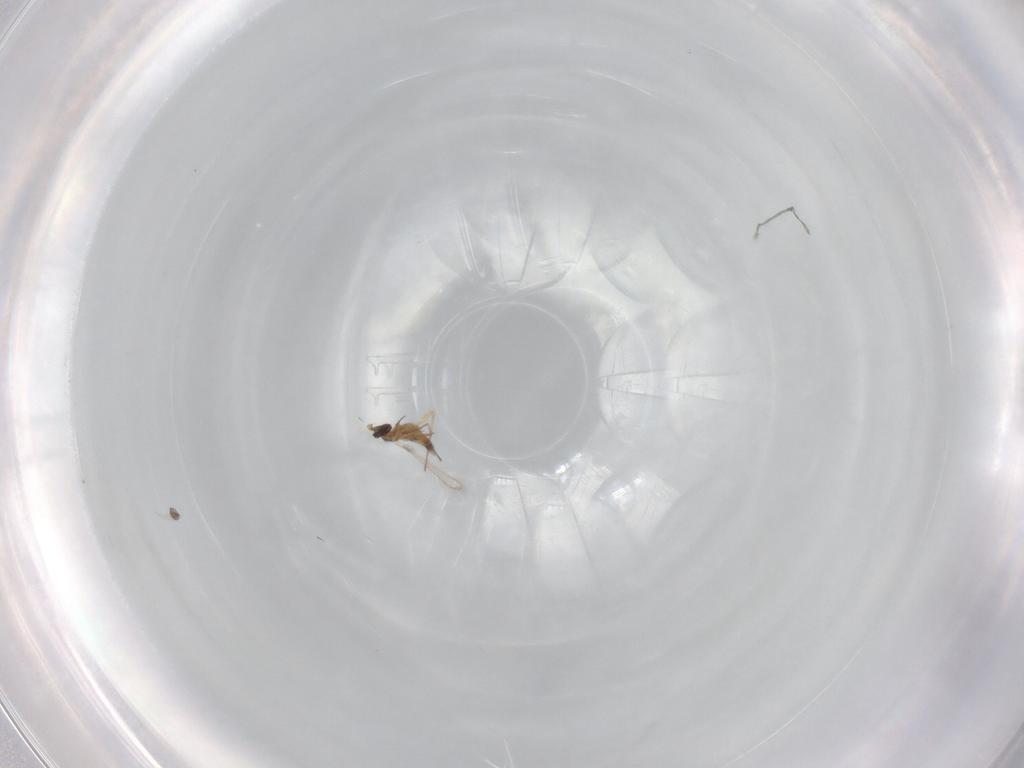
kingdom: Animalia
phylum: Arthropoda
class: Insecta
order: Hymenoptera
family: Mymaridae
